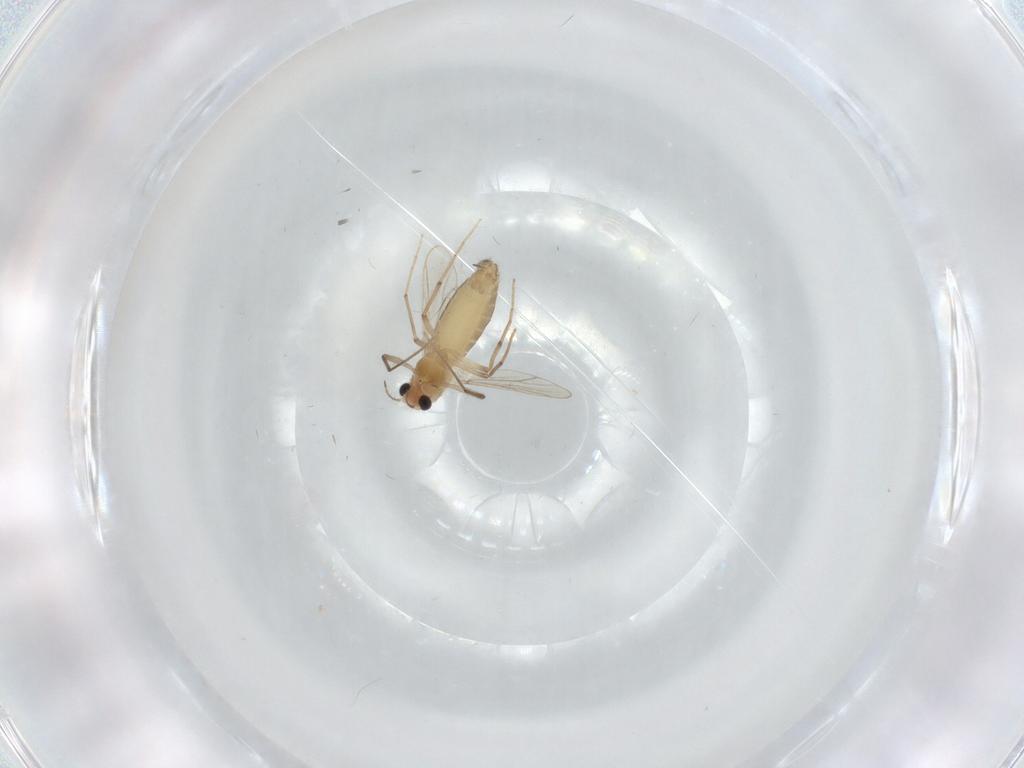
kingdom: Animalia
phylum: Arthropoda
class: Insecta
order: Diptera
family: Chironomidae
